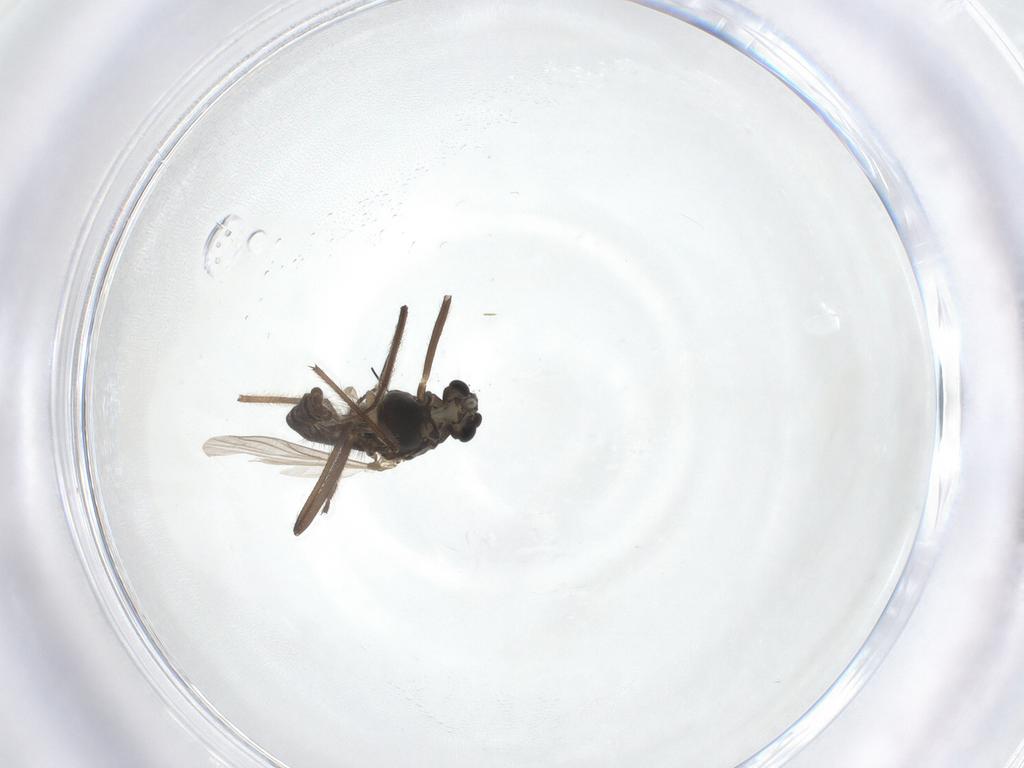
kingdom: Animalia
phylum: Arthropoda
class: Insecta
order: Diptera
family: Chironomidae
